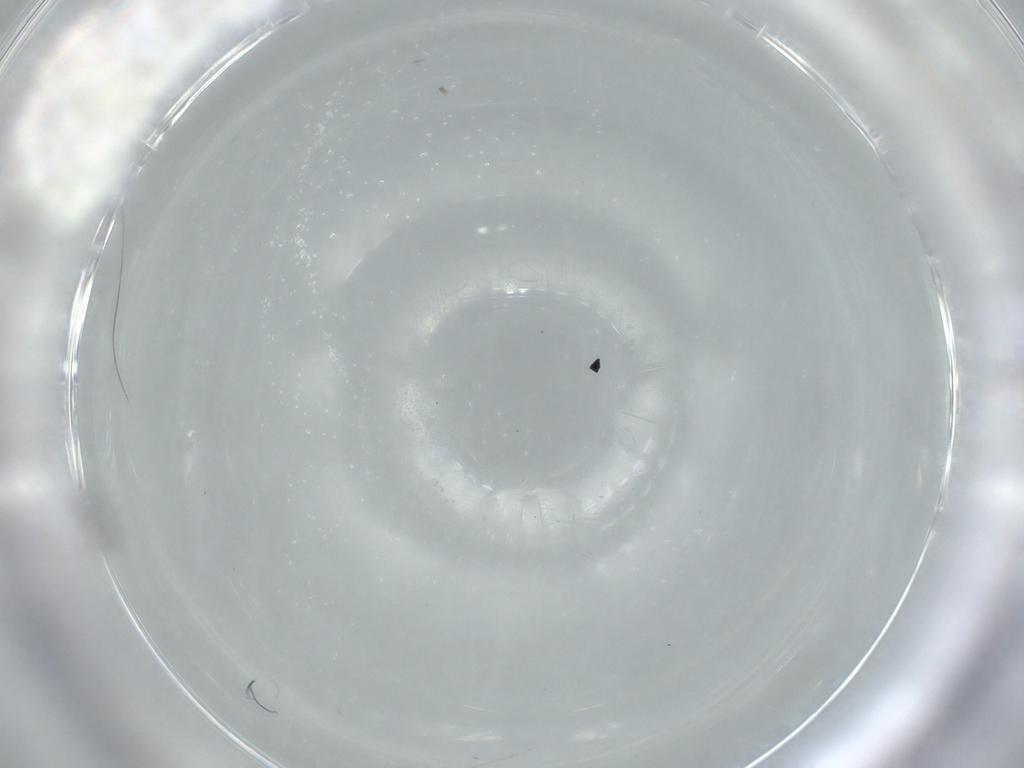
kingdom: Animalia
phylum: Arthropoda
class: Insecta
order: Hymenoptera
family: Mymaridae
